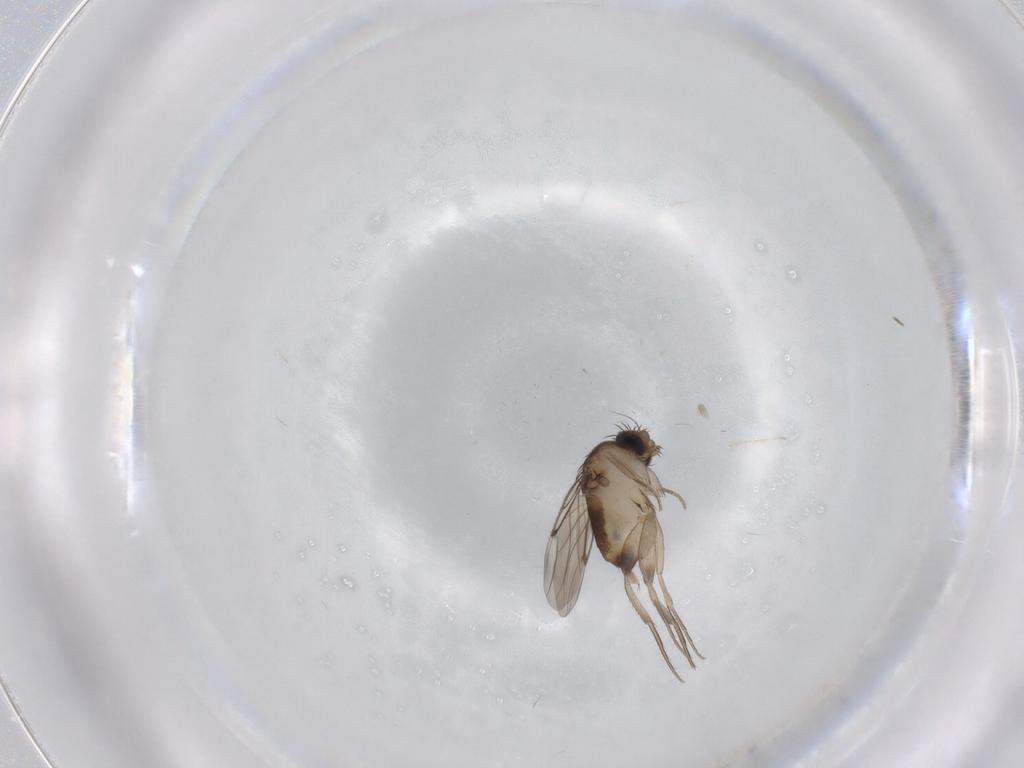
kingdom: Animalia
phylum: Arthropoda
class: Insecta
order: Diptera
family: Phoridae
